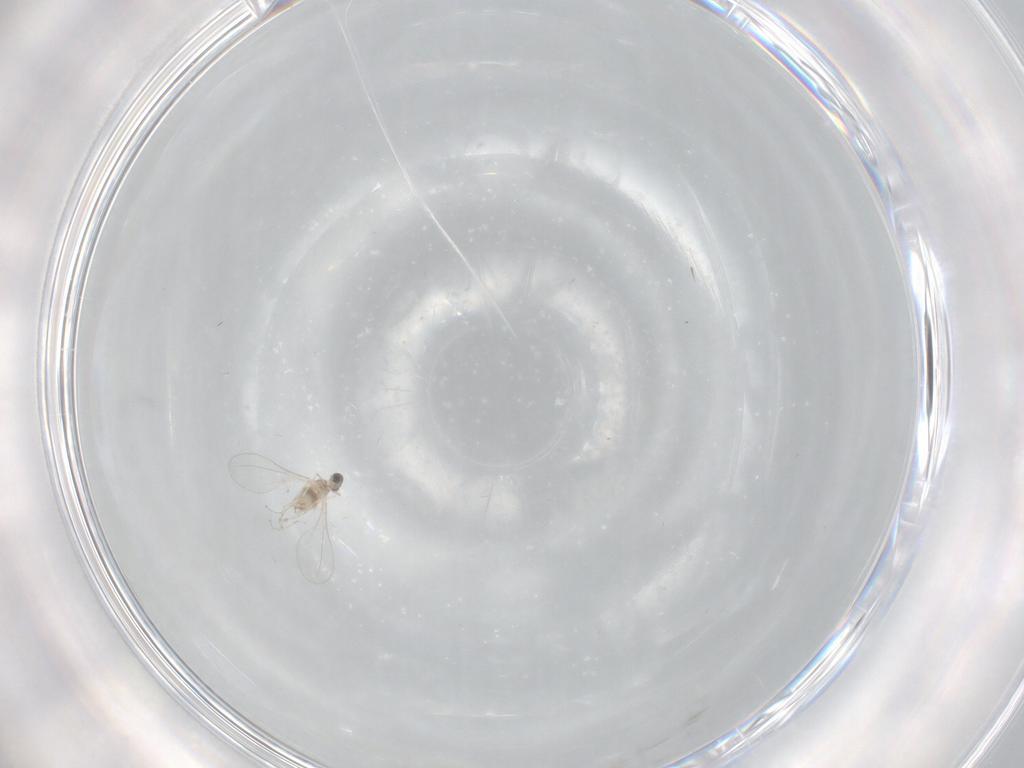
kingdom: Animalia
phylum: Arthropoda
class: Insecta
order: Diptera
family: Cecidomyiidae
